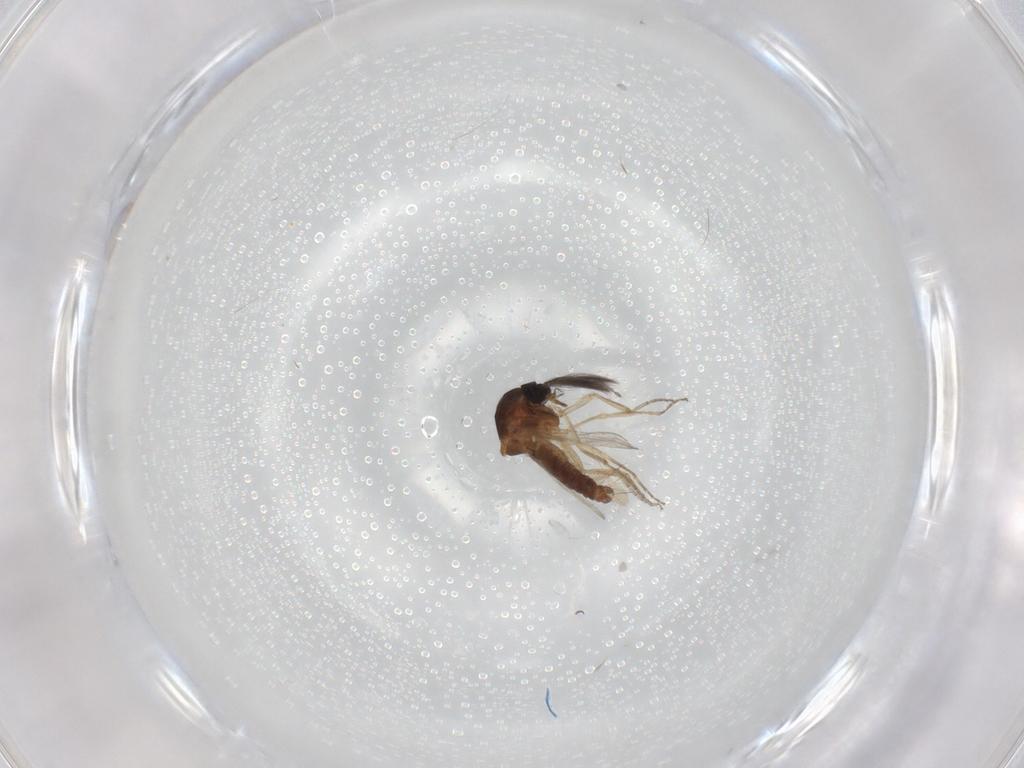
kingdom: Animalia
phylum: Arthropoda
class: Insecta
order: Diptera
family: Ceratopogonidae
